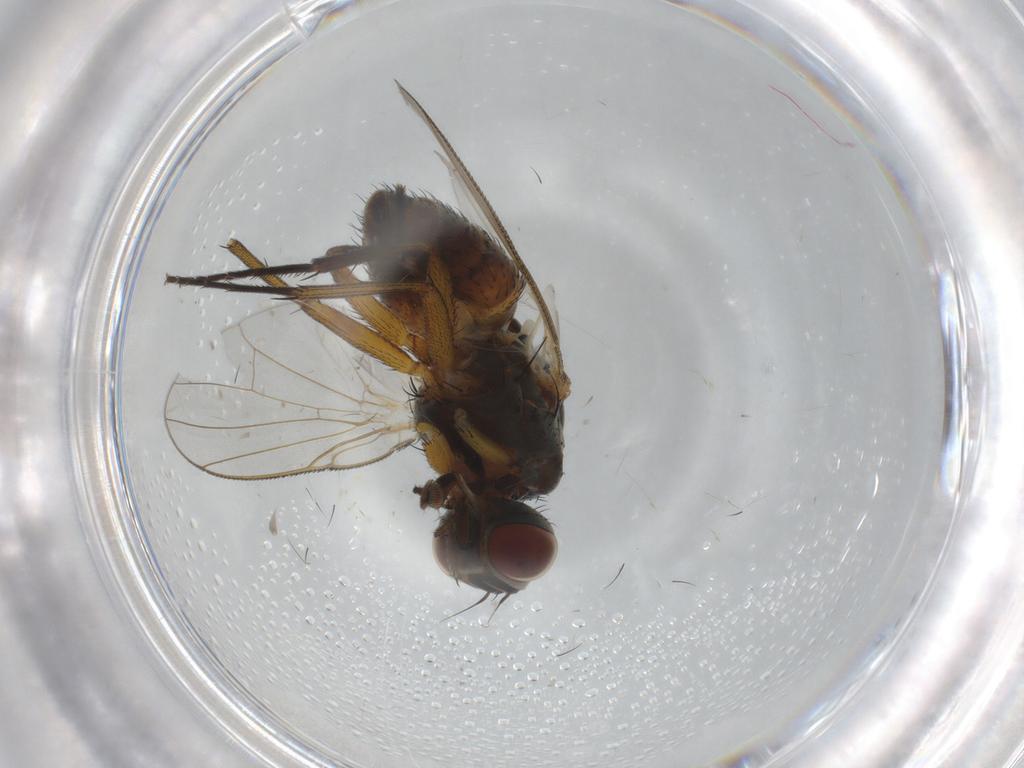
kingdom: Animalia
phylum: Arthropoda
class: Insecta
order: Diptera
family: Muscidae
